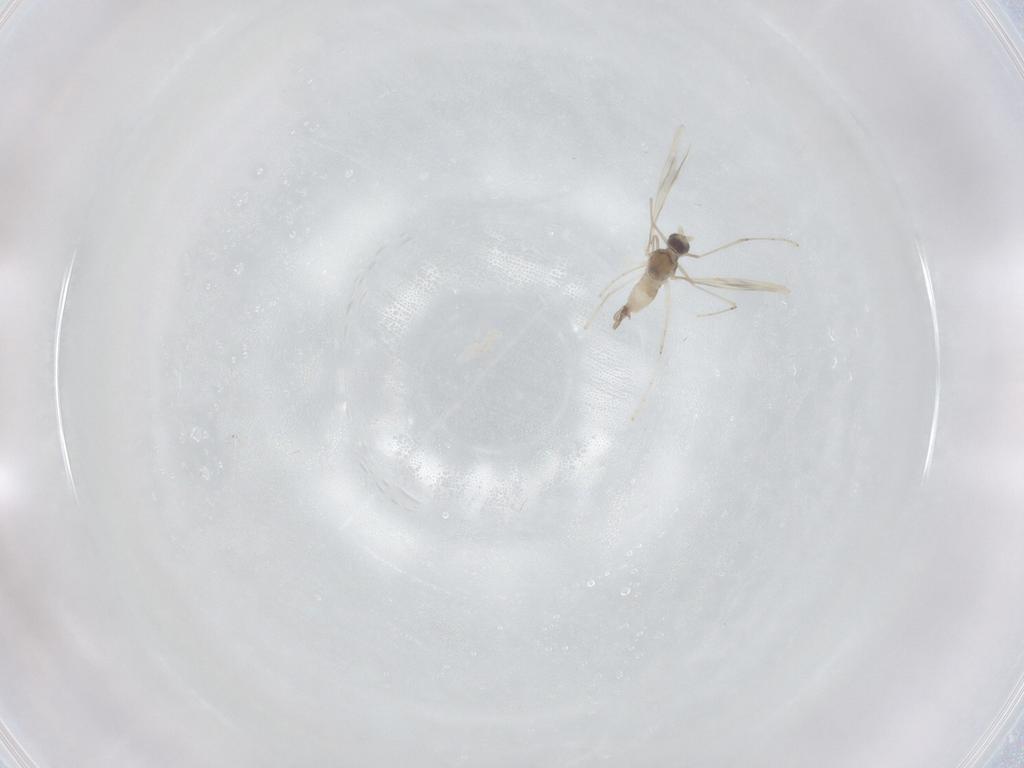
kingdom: Animalia
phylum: Arthropoda
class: Insecta
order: Diptera
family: Cecidomyiidae
